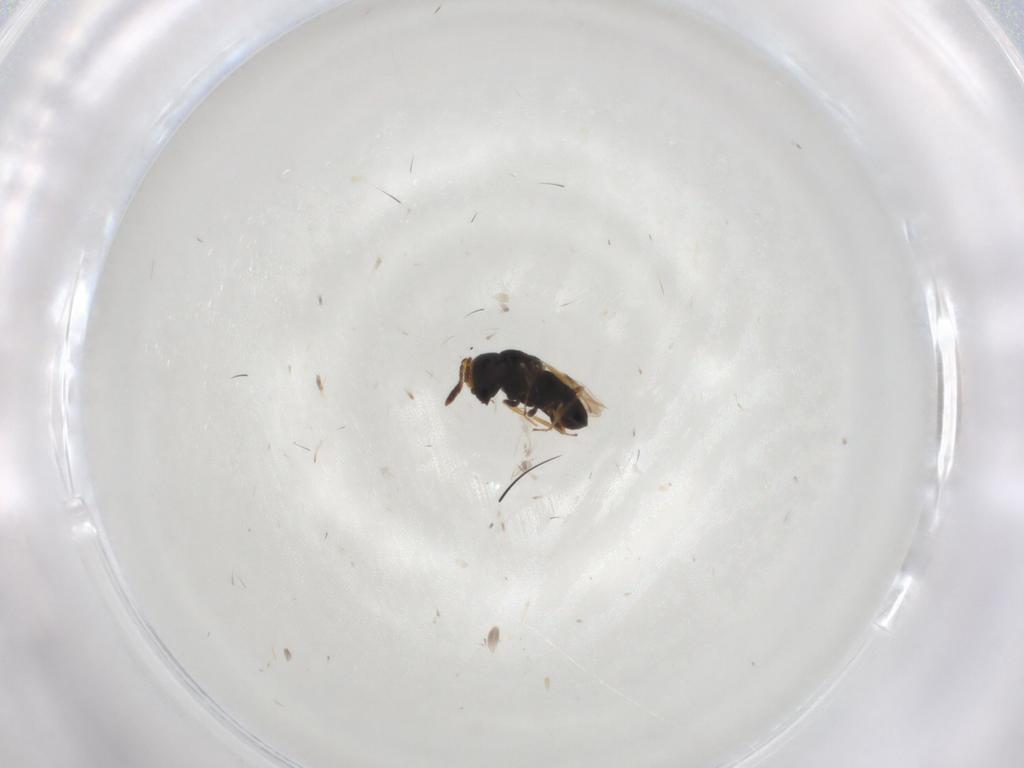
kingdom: Animalia
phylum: Arthropoda
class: Insecta
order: Hymenoptera
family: Scelionidae
